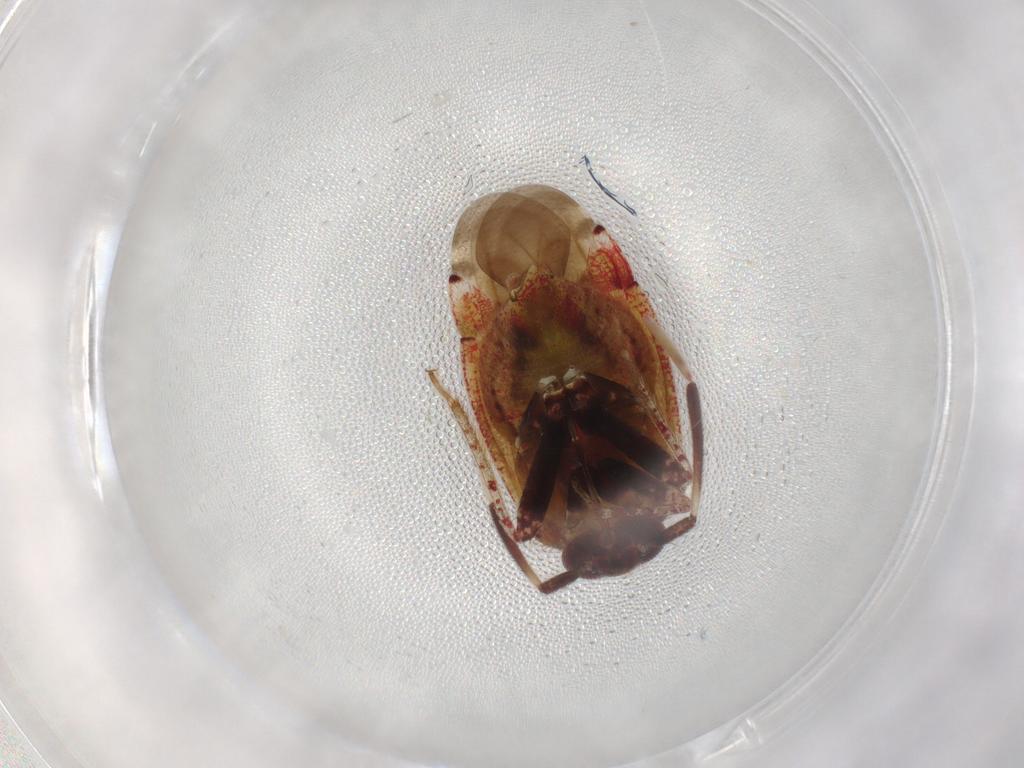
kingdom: Animalia
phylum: Arthropoda
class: Insecta
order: Hemiptera
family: Miridae
